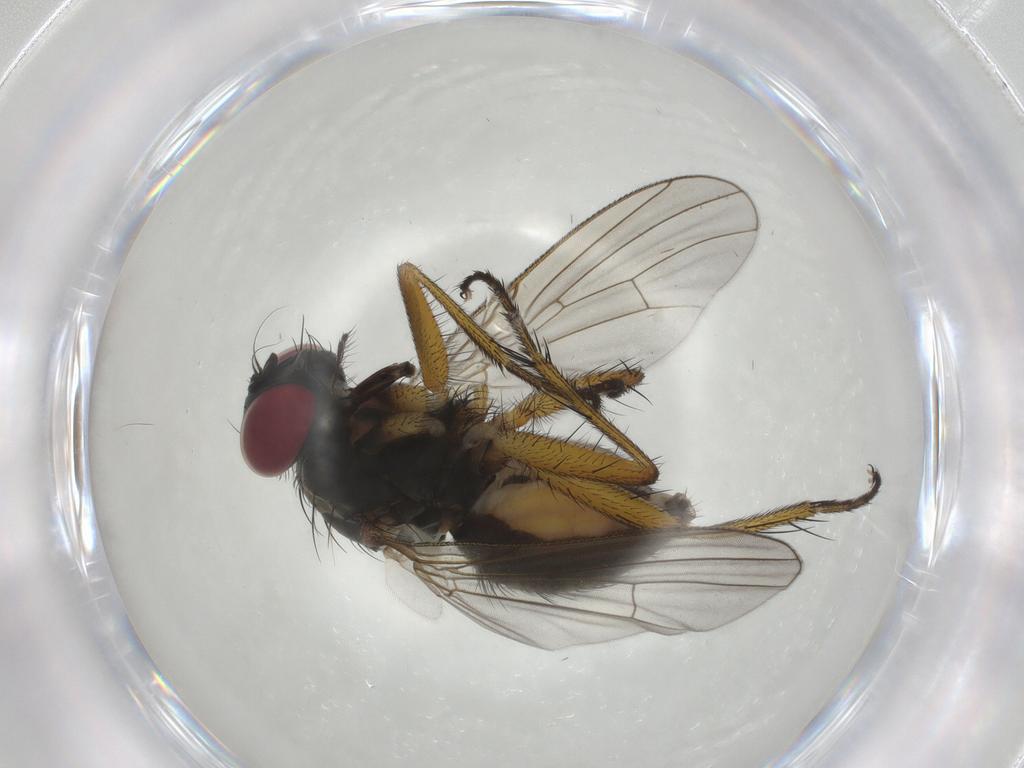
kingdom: Animalia
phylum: Arthropoda
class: Insecta
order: Diptera
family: Muscidae
